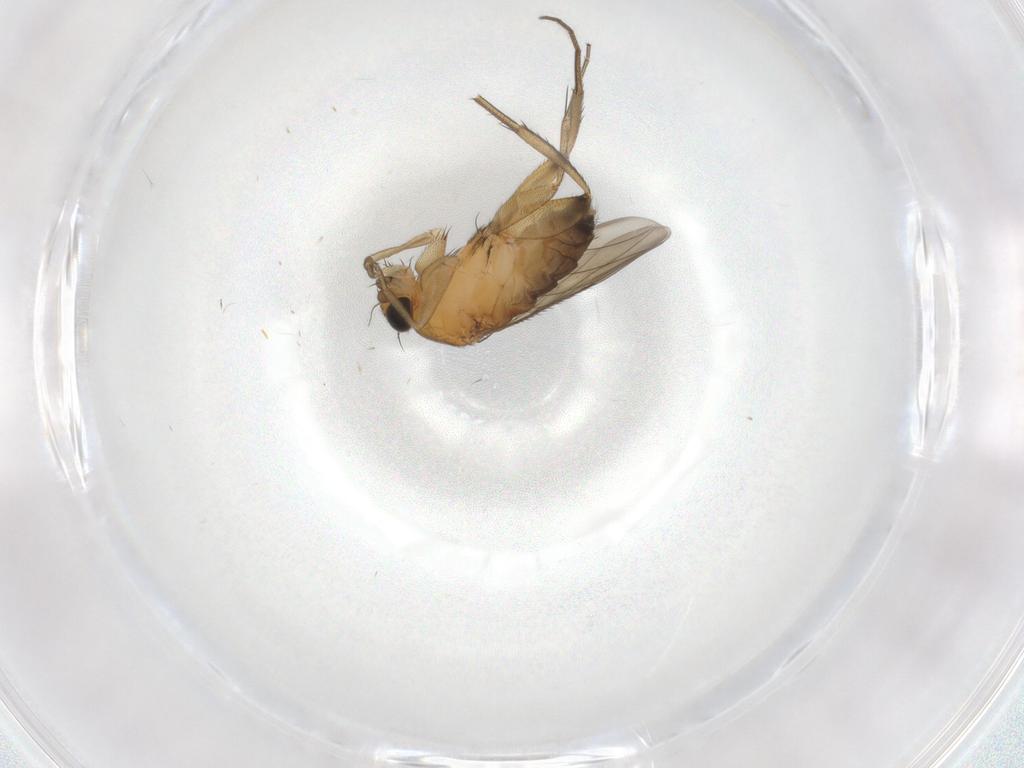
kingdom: Animalia
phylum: Arthropoda
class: Insecta
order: Diptera
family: Phoridae
